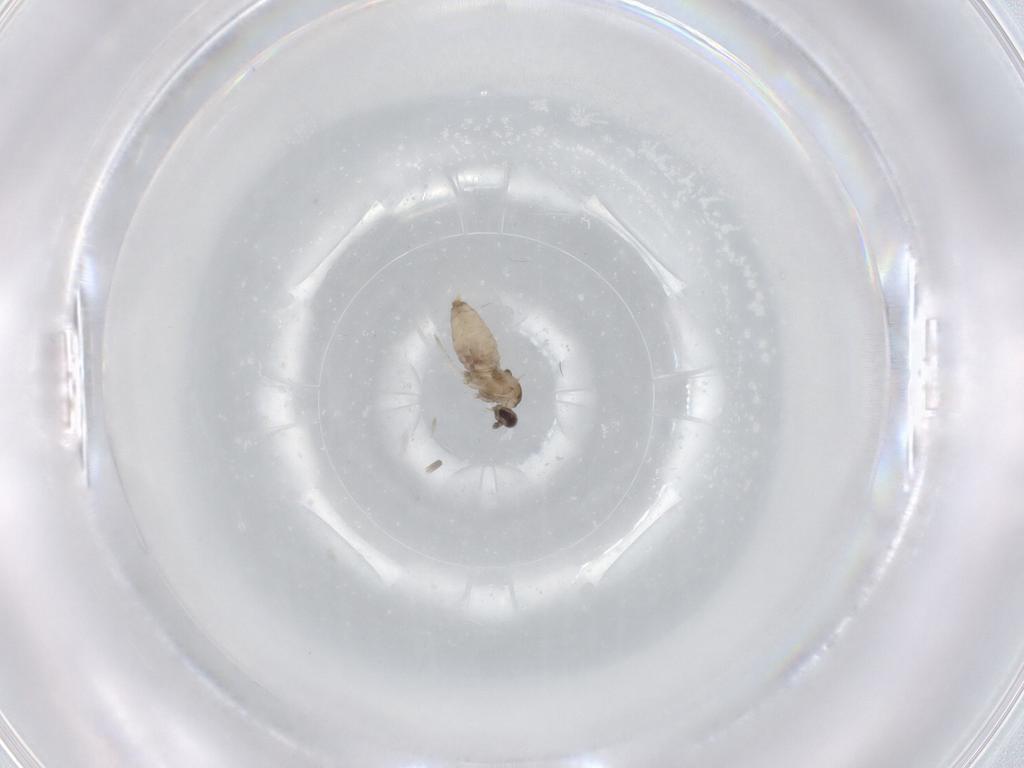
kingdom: Animalia
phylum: Arthropoda
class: Insecta
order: Diptera
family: Cecidomyiidae
